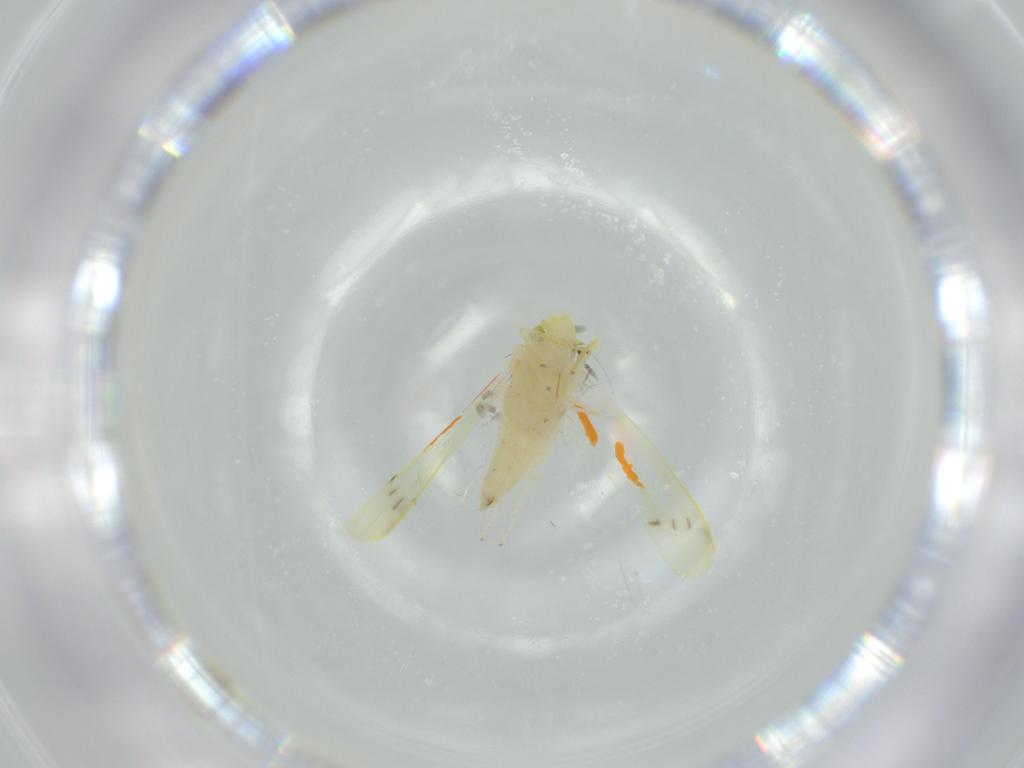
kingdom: Animalia
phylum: Arthropoda
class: Insecta
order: Hemiptera
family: Cicadellidae
